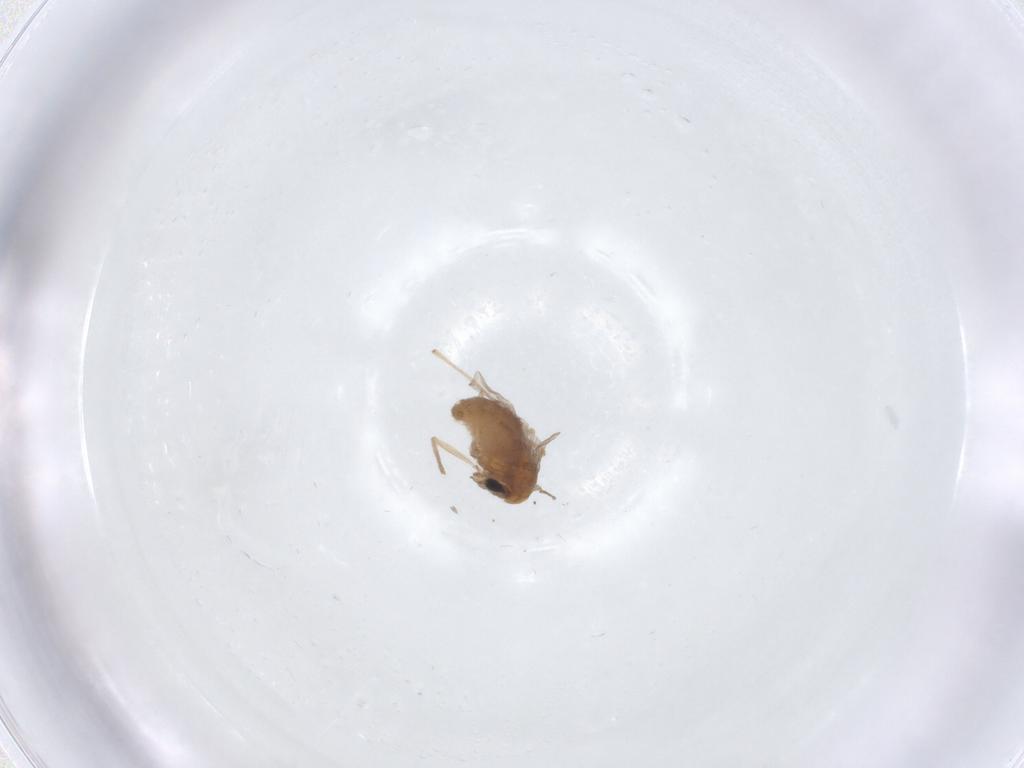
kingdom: Animalia
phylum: Arthropoda
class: Insecta
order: Diptera
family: Chironomidae
